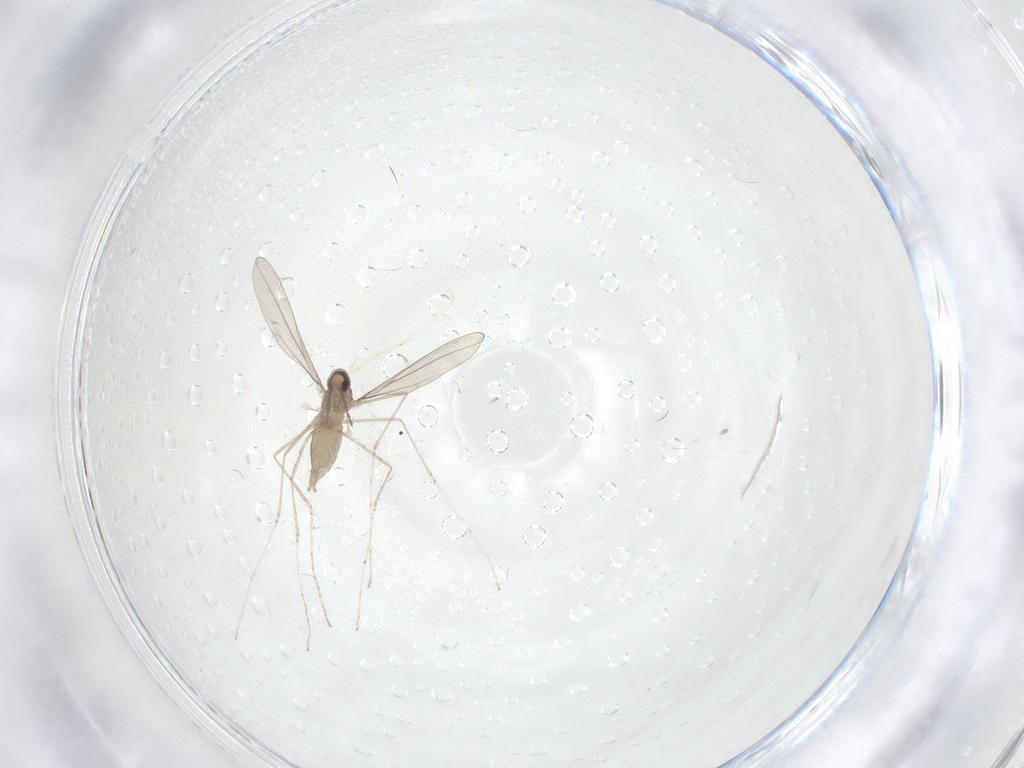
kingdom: Animalia
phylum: Arthropoda
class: Insecta
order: Diptera
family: Cecidomyiidae
